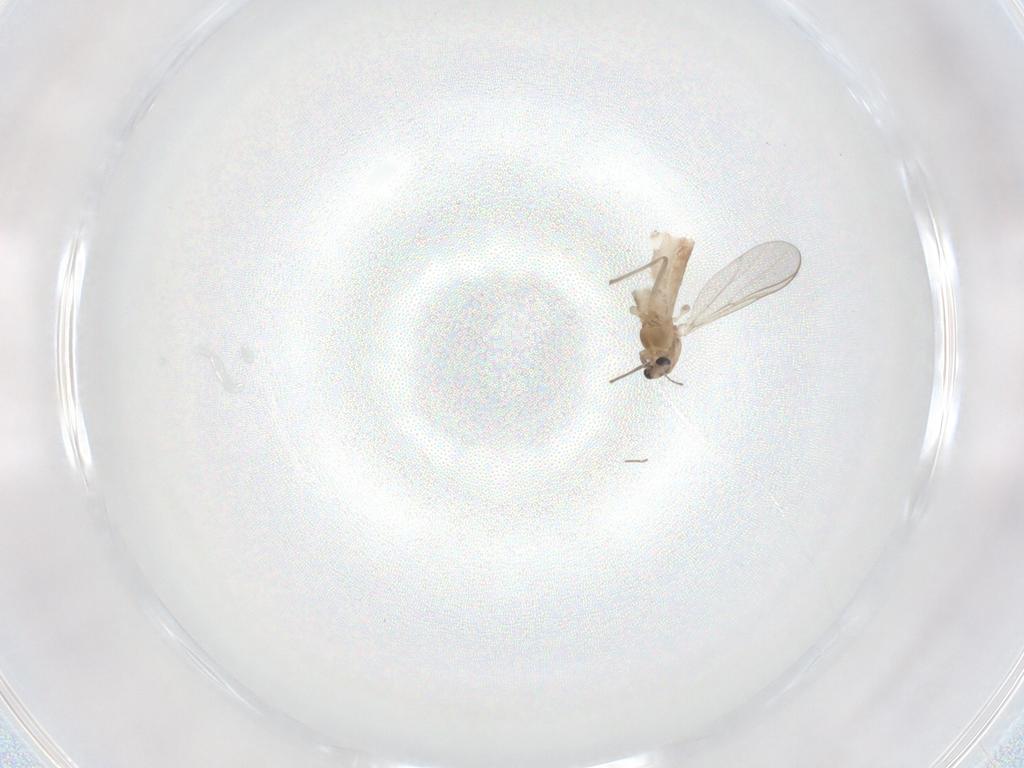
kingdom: Animalia
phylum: Arthropoda
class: Insecta
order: Diptera
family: Chironomidae
